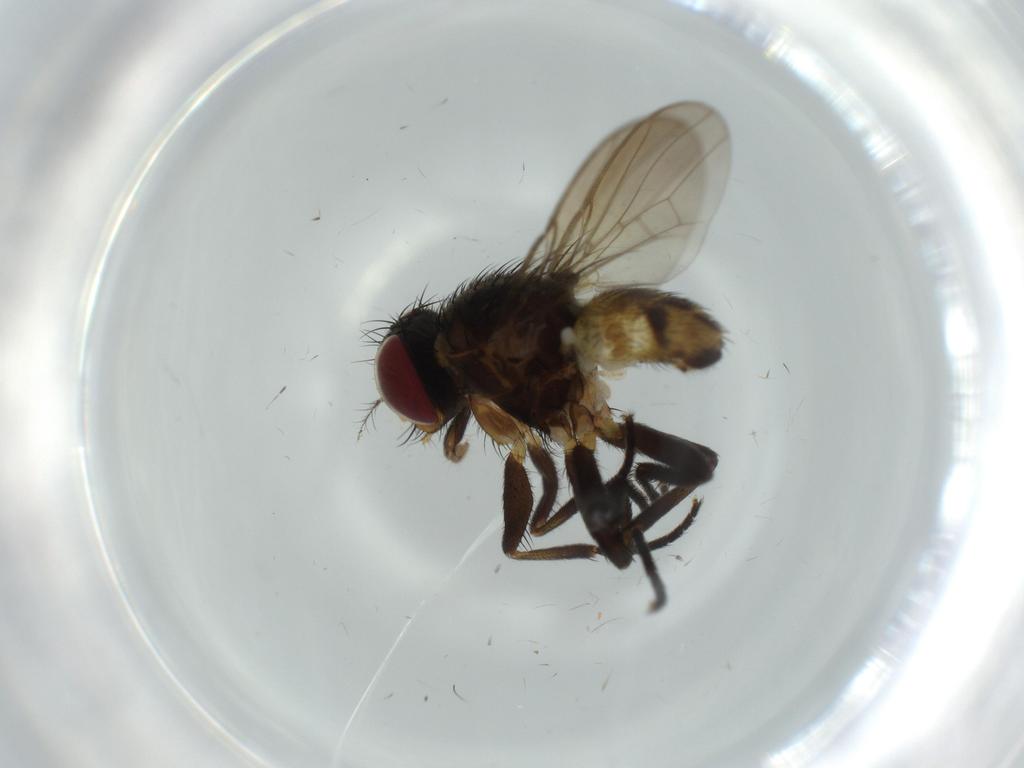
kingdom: Animalia
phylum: Arthropoda
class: Insecta
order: Diptera
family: Anthomyiidae
